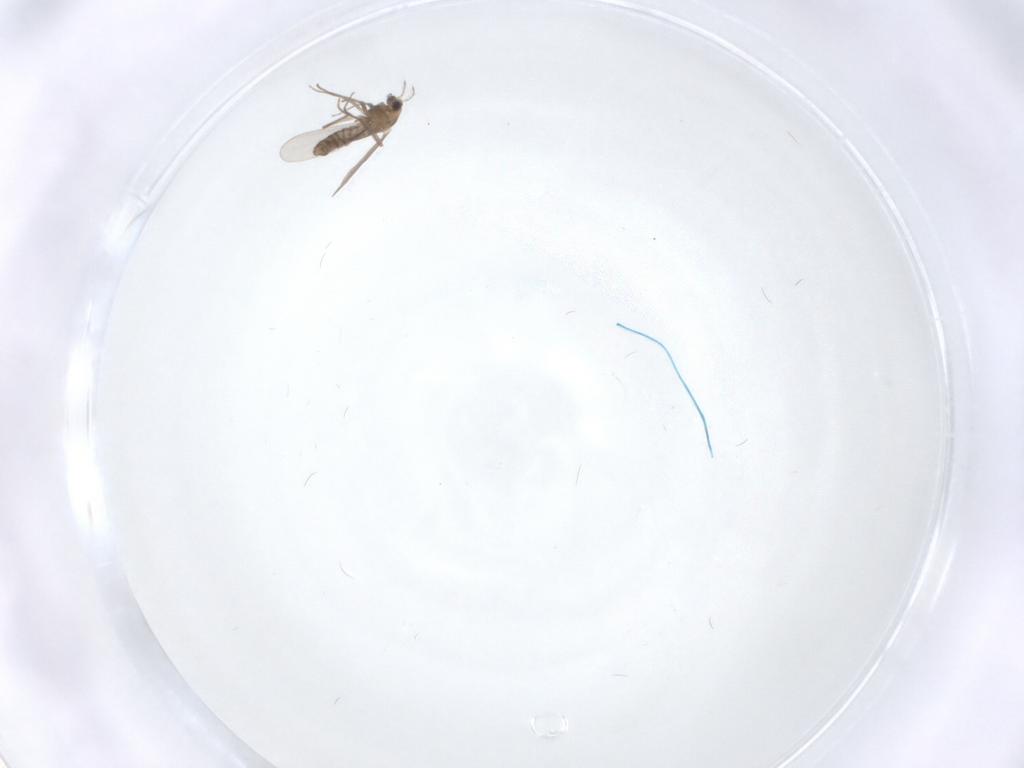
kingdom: Animalia
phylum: Arthropoda
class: Insecta
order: Diptera
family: Chironomidae
